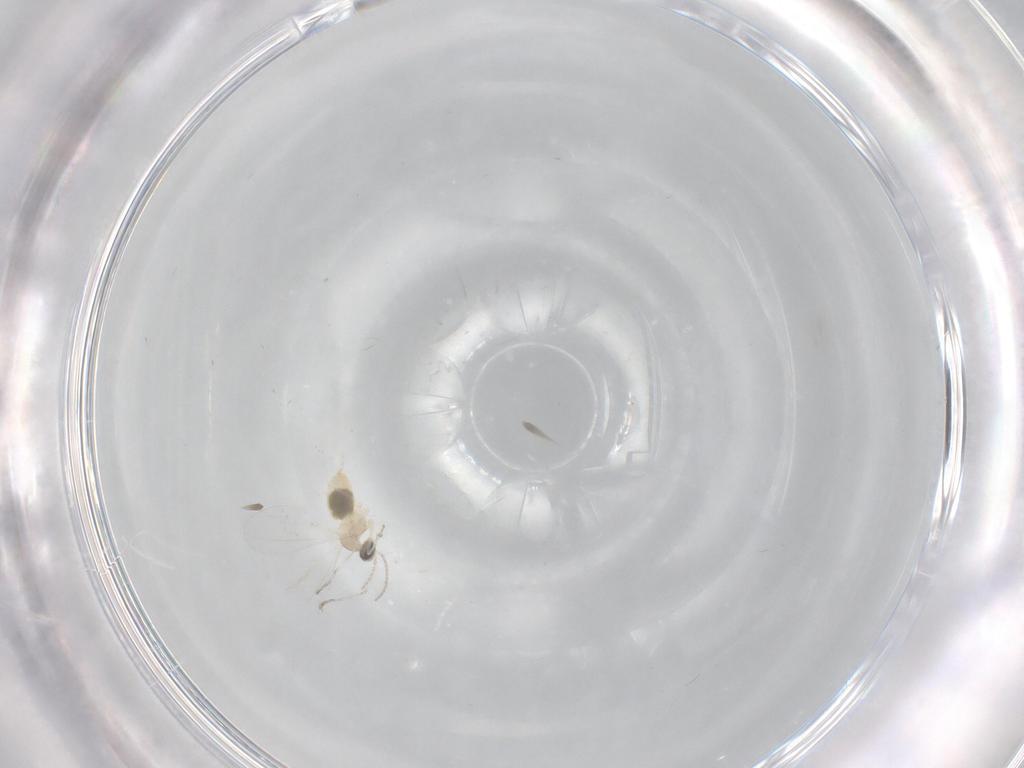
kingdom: Animalia
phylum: Arthropoda
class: Insecta
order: Diptera
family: Cecidomyiidae
